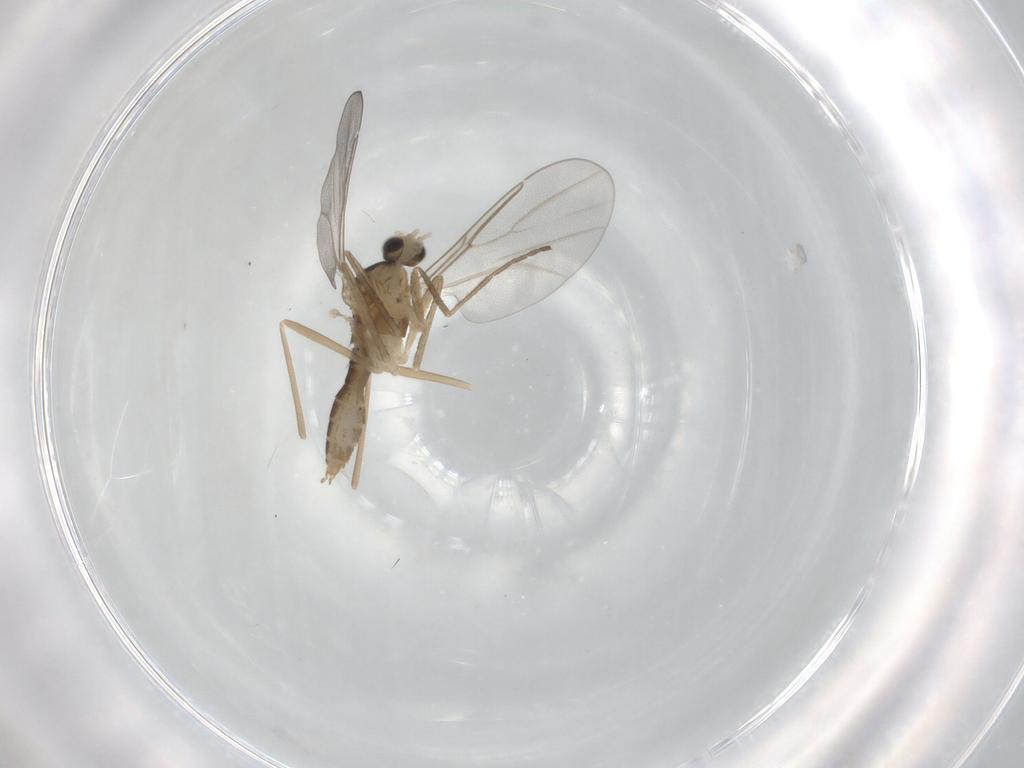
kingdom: Animalia
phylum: Arthropoda
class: Insecta
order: Diptera
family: Cecidomyiidae
